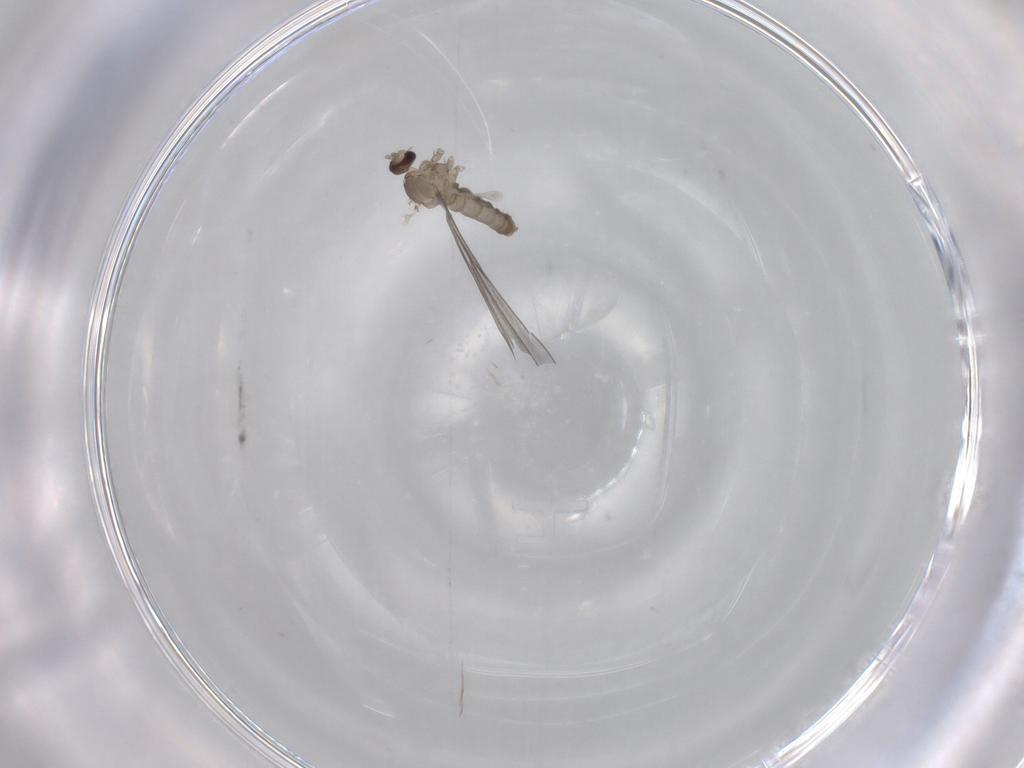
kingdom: Animalia
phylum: Arthropoda
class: Insecta
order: Diptera
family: Cecidomyiidae
